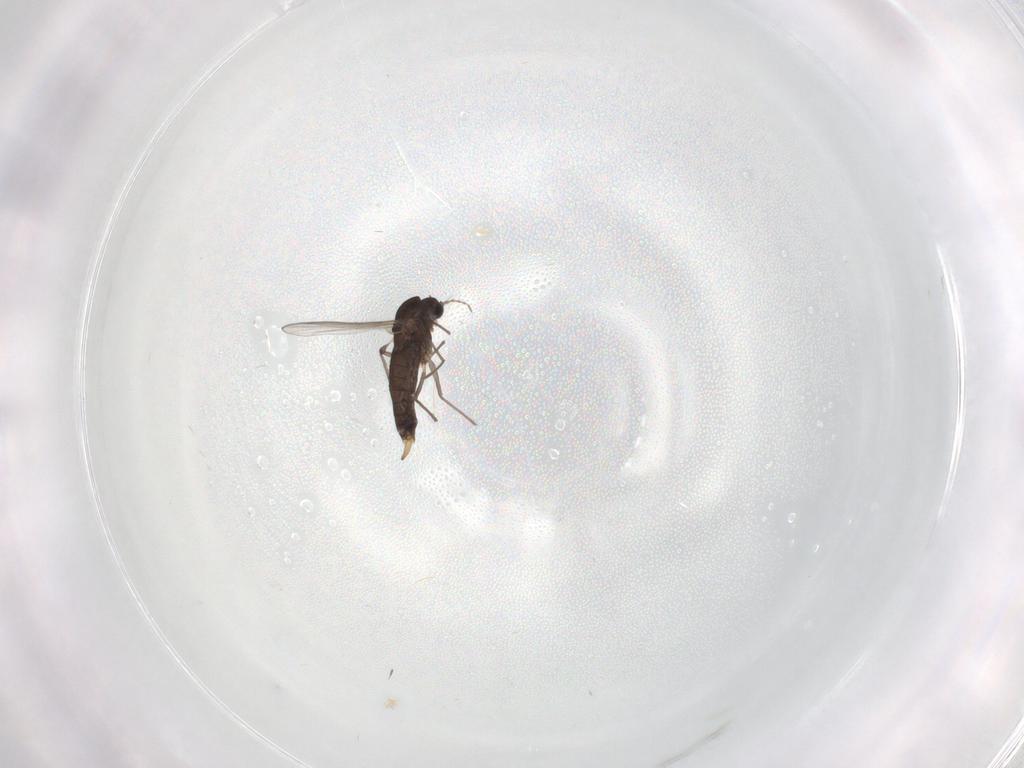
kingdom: Animalia
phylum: Arthropoda
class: Insecta
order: Diptera
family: Chironomidae
